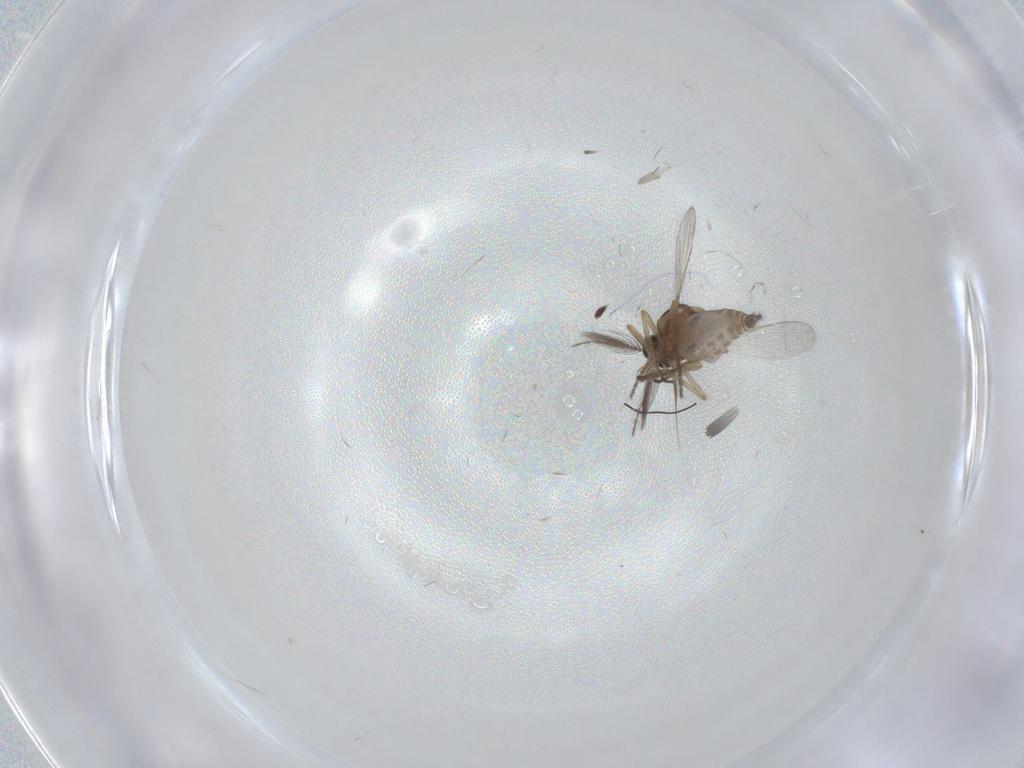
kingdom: Animalia
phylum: Arthropoda
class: Insecta
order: Diptera
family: Ceratopogonidae
